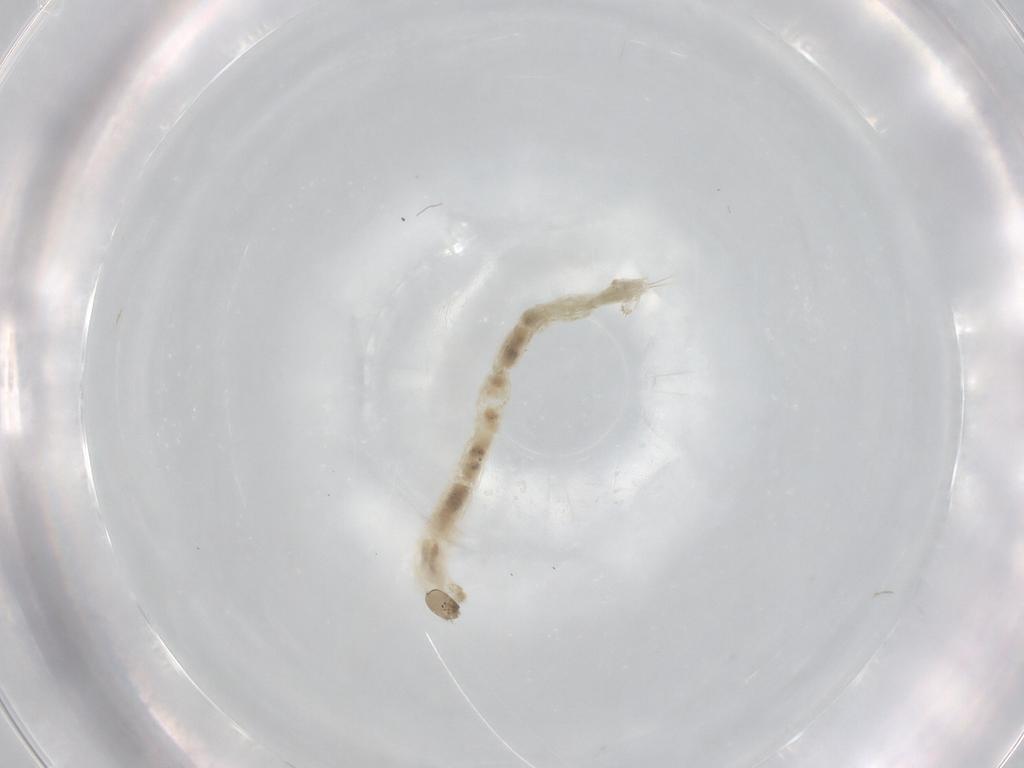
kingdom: Animalia
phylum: Arthropoda
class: Insecta
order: Diptera
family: Chironomidae
